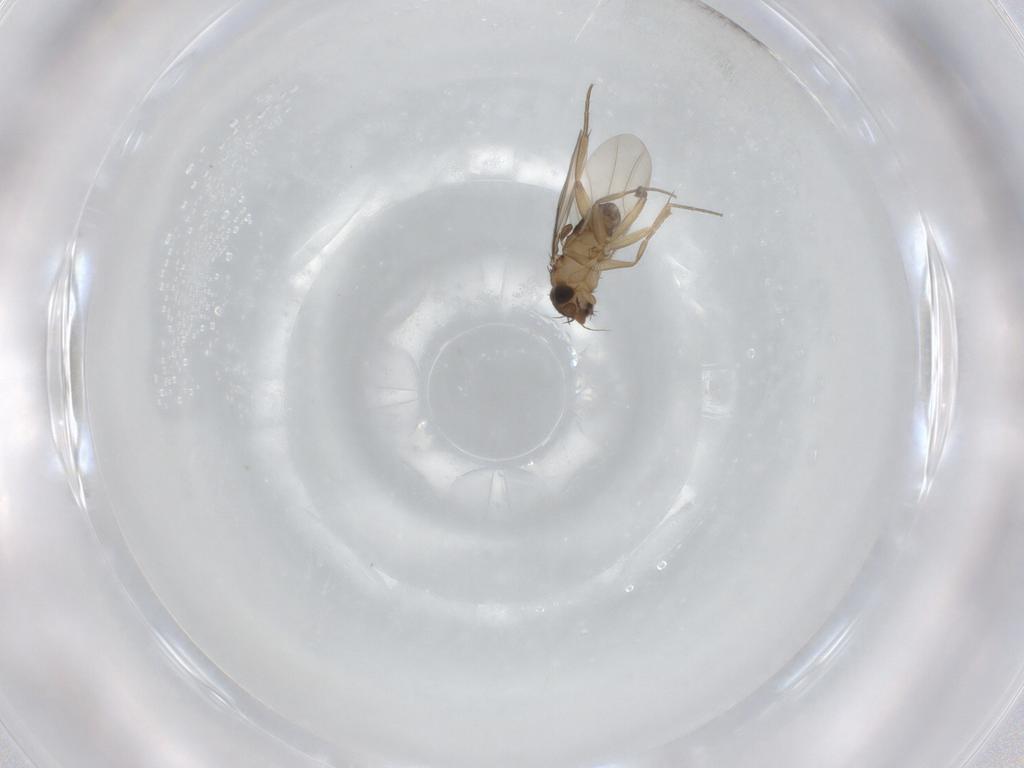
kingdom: Animalia
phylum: Arthropoda
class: Insecta
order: Diptera
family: Phoridae
